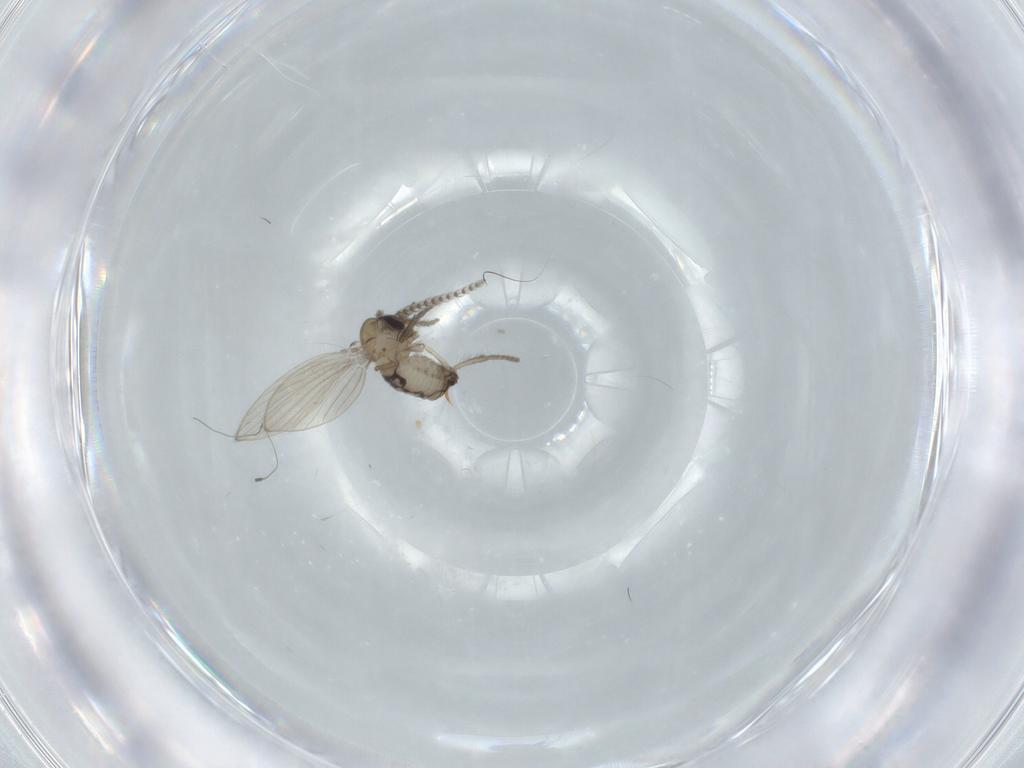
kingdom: Animalia
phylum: Arthropoda
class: Insecta
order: Diptera
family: Psychodidae
